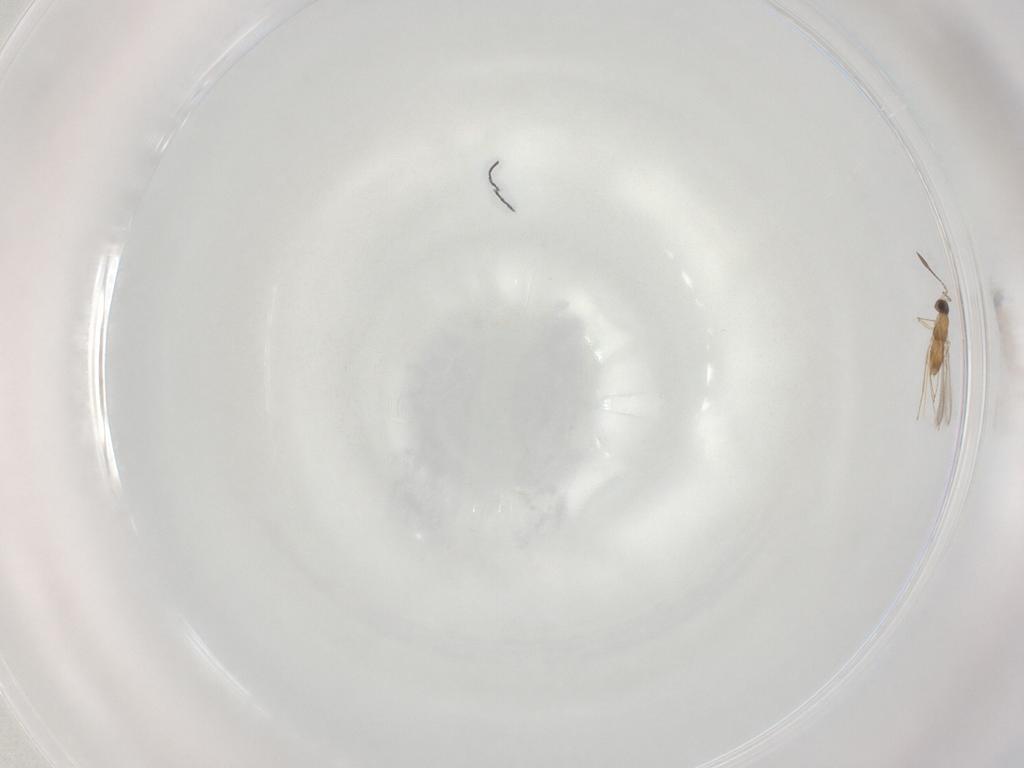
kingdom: Animalia
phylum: Arthropoda
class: Insecta
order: Hymenoptera
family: Mymaridae
